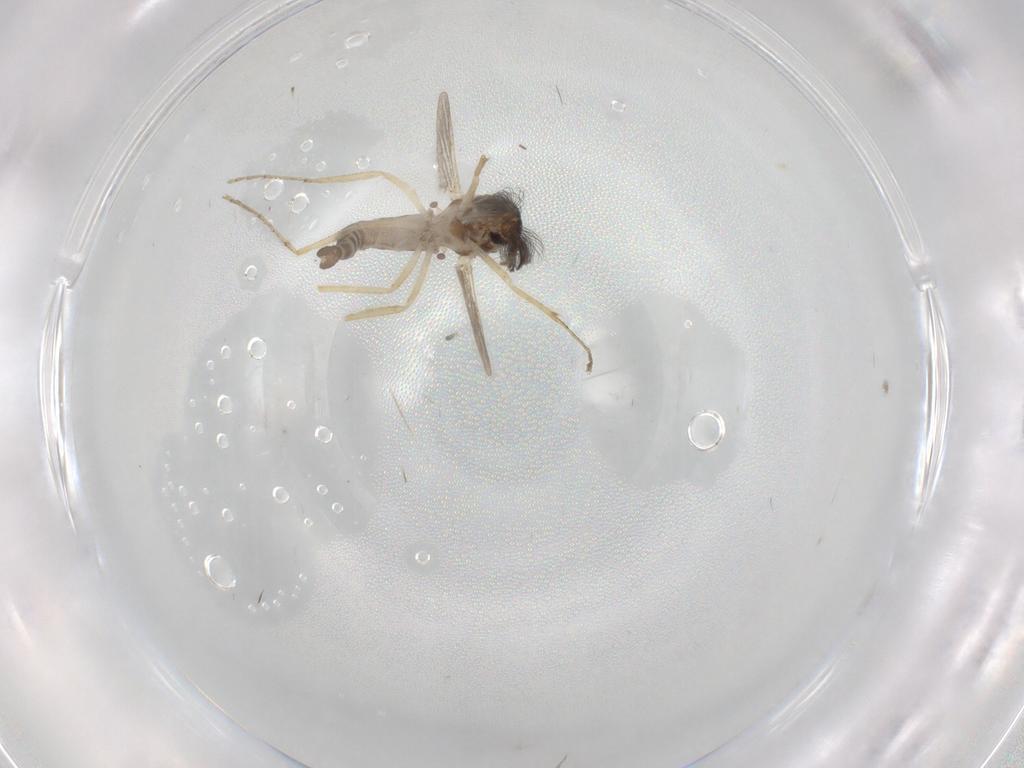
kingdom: Animalia
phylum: Arthropoda
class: Insecta
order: Diptera
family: Ceratopogonidae
